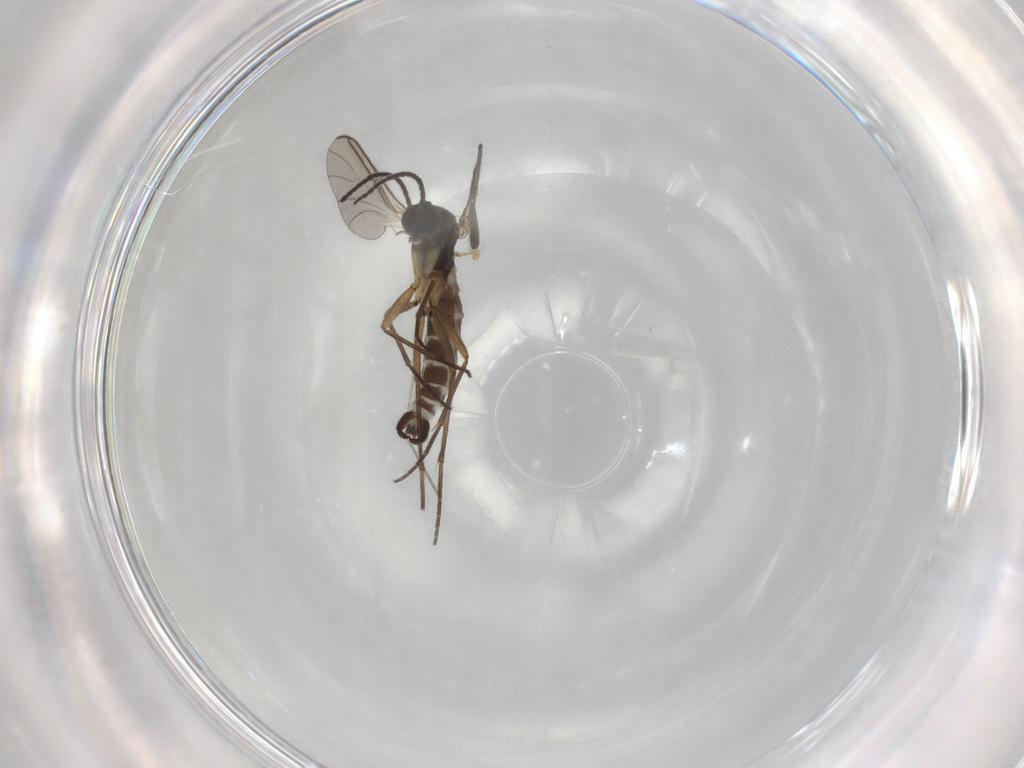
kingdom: Animalia
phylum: Arthropoda
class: Insecta
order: Diptera
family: Sciaridae
